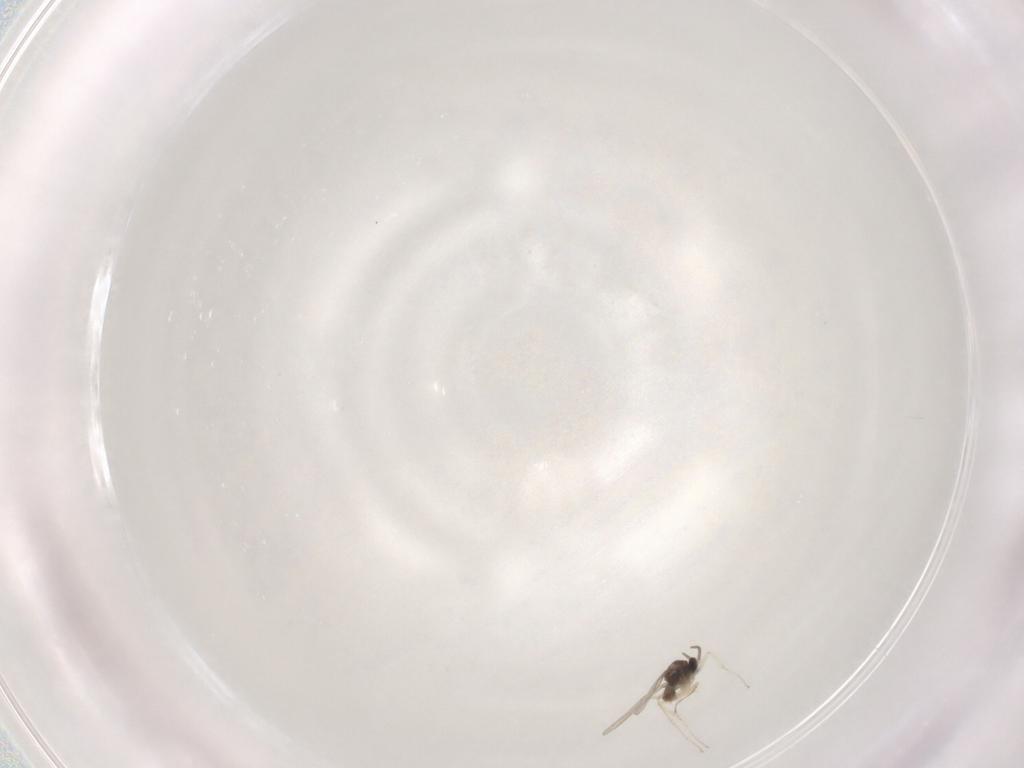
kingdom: Animalia
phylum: Arthropoda
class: Insecta
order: Diptera
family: Cecidomyiidae
